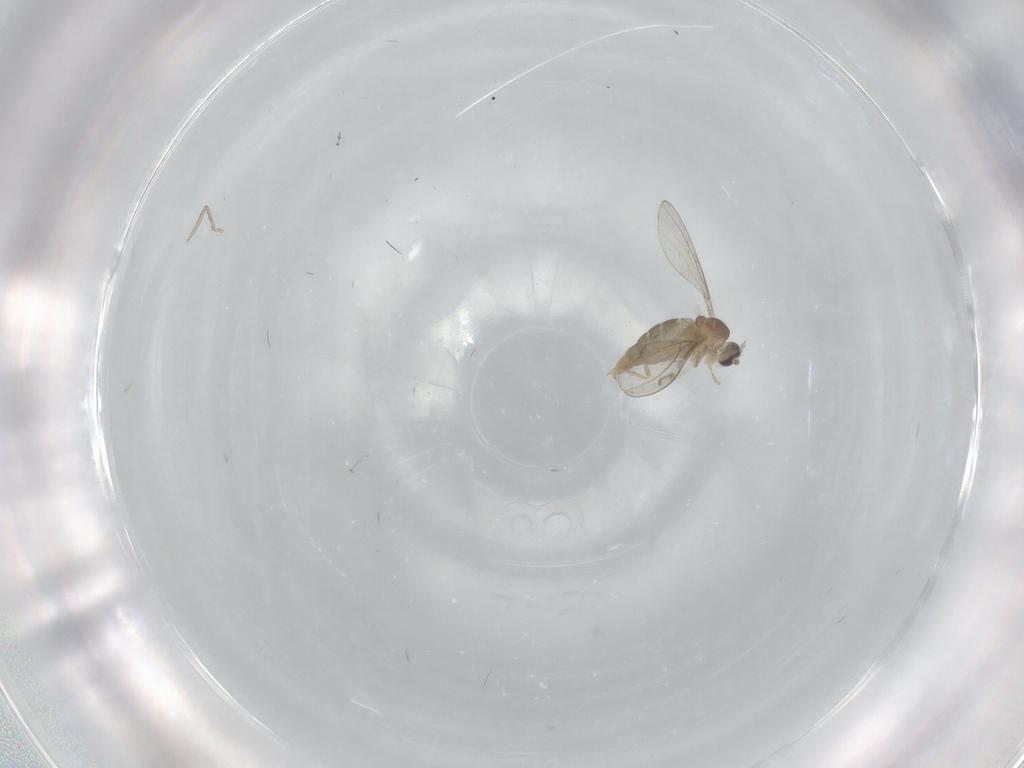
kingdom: Animalia
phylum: Arthropoda
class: Insecta
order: Diptera
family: Cecidomyiidae
